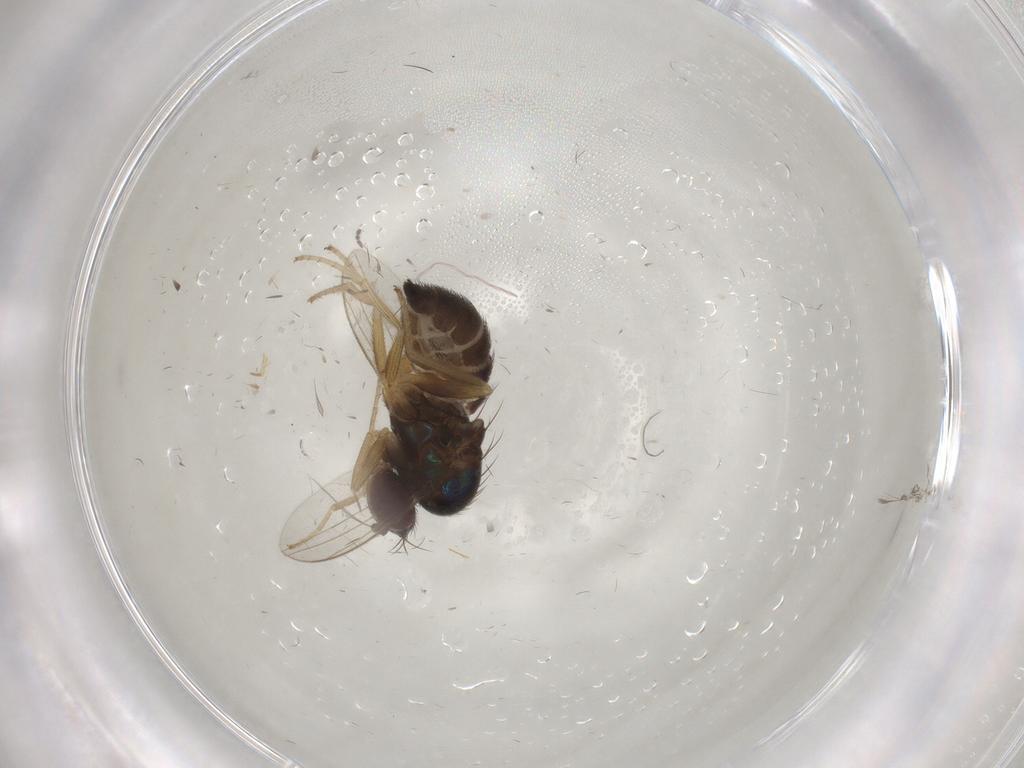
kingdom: Animalia
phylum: Arthropoda
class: Insecta
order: Diptera
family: Dolichopodidae
